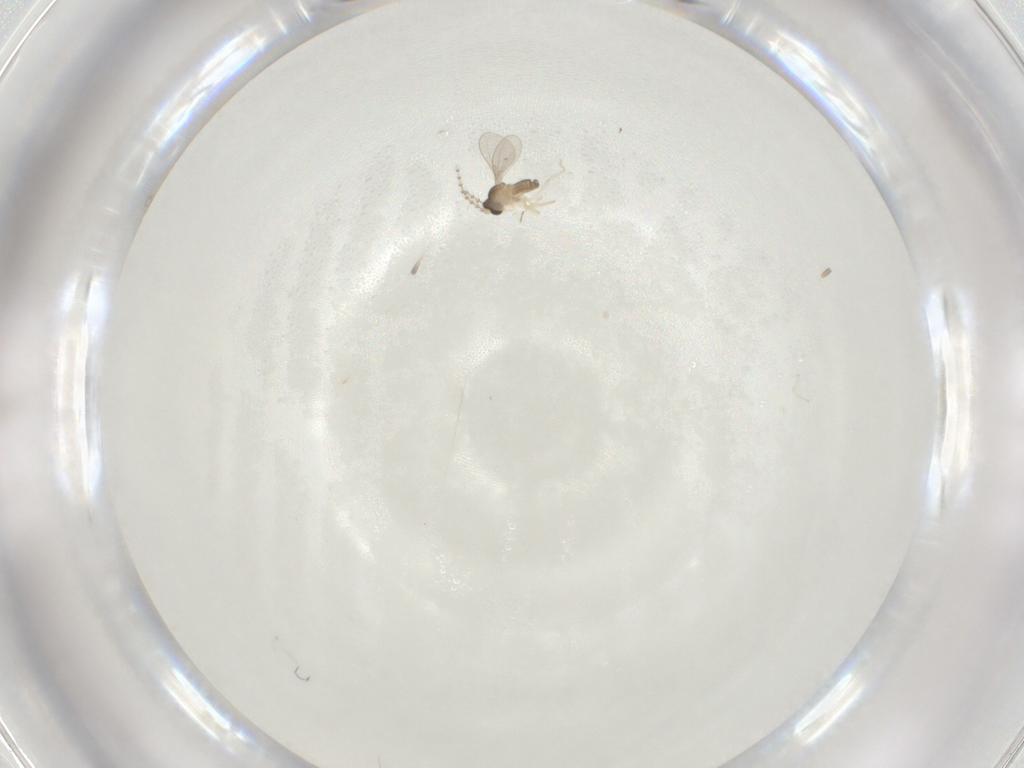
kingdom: Animalia
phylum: Arthropoda
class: Insecta
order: Diptera
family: Cecidomyiidae
